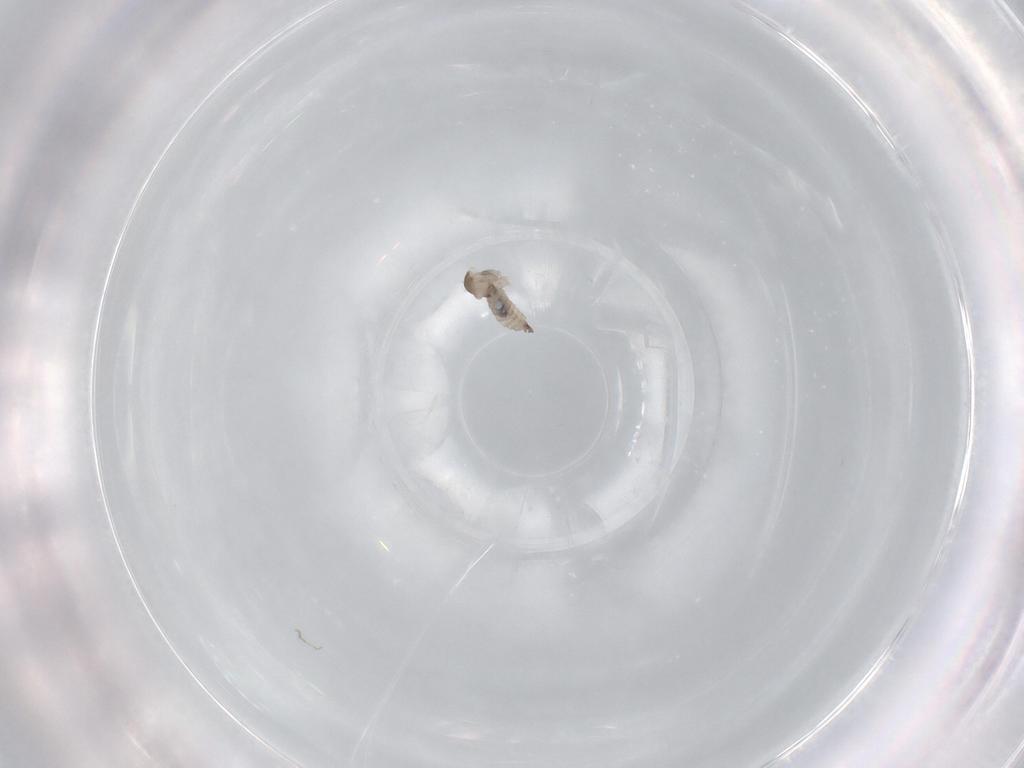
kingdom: Animalia
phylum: Arthropoda
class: Insecta
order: Diptera
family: Cecidomyiidae
